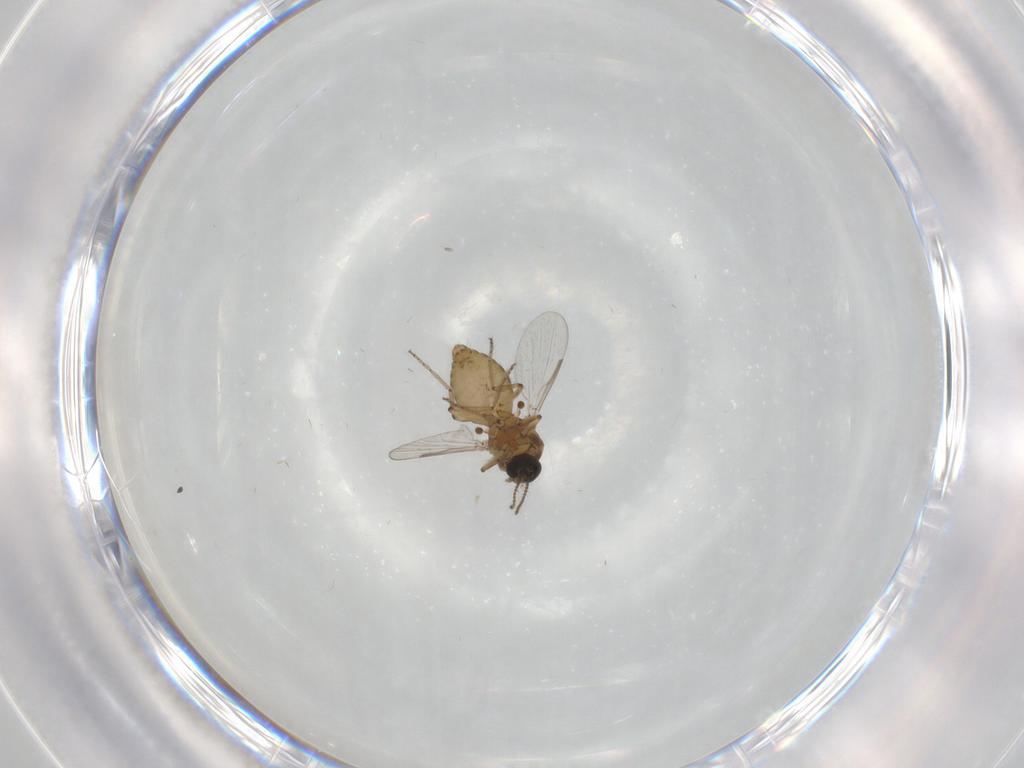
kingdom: Animalia
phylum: Arthropoda
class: Insecta
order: Diptera
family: Ceratopogonidae
